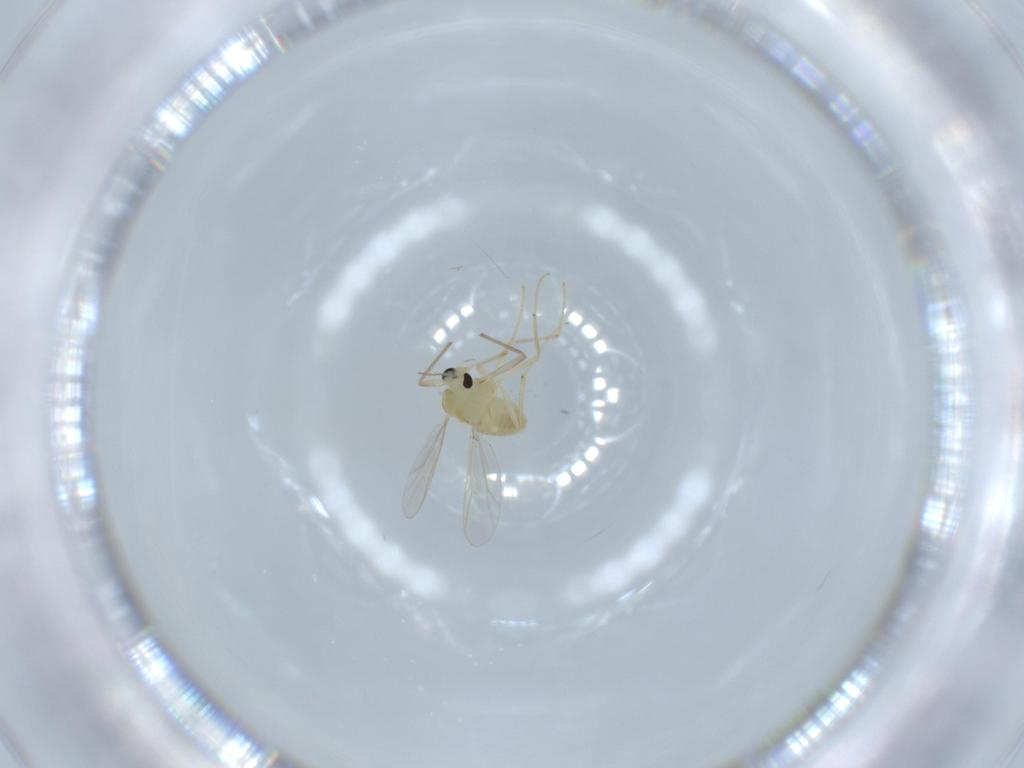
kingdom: Animalia
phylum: Arthropoda
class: Insecta
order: Diptera
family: Chironomidae
